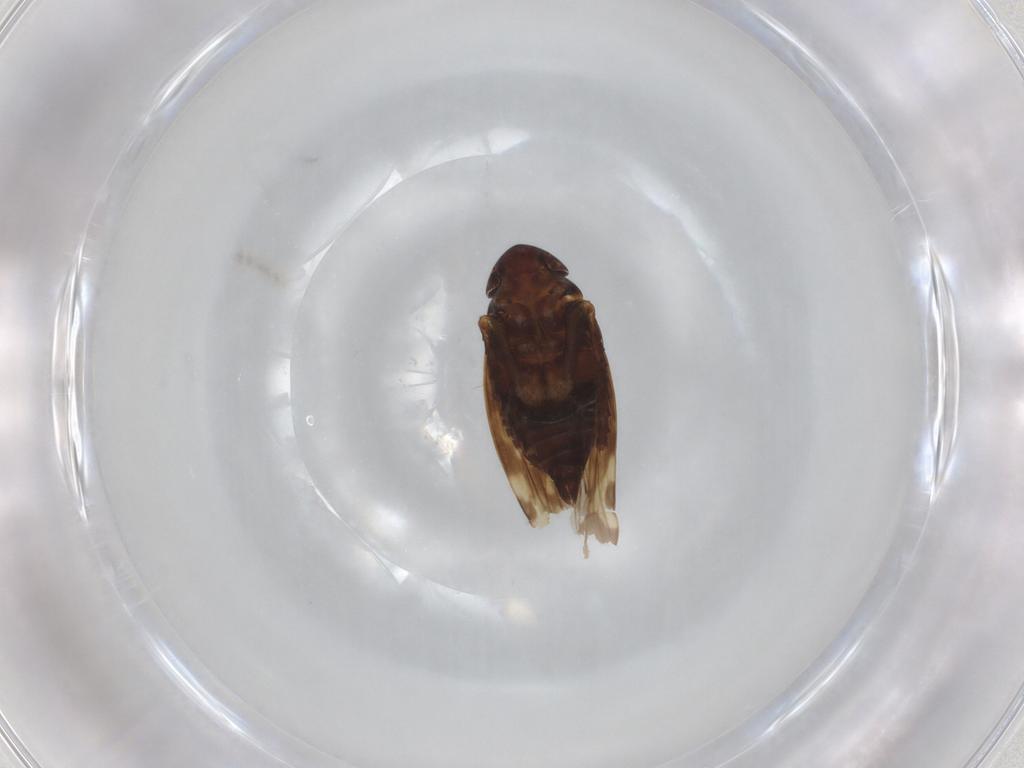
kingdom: Animalia
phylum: Arthropoda
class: Insecta
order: Hemiptera
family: Cicadellidae
